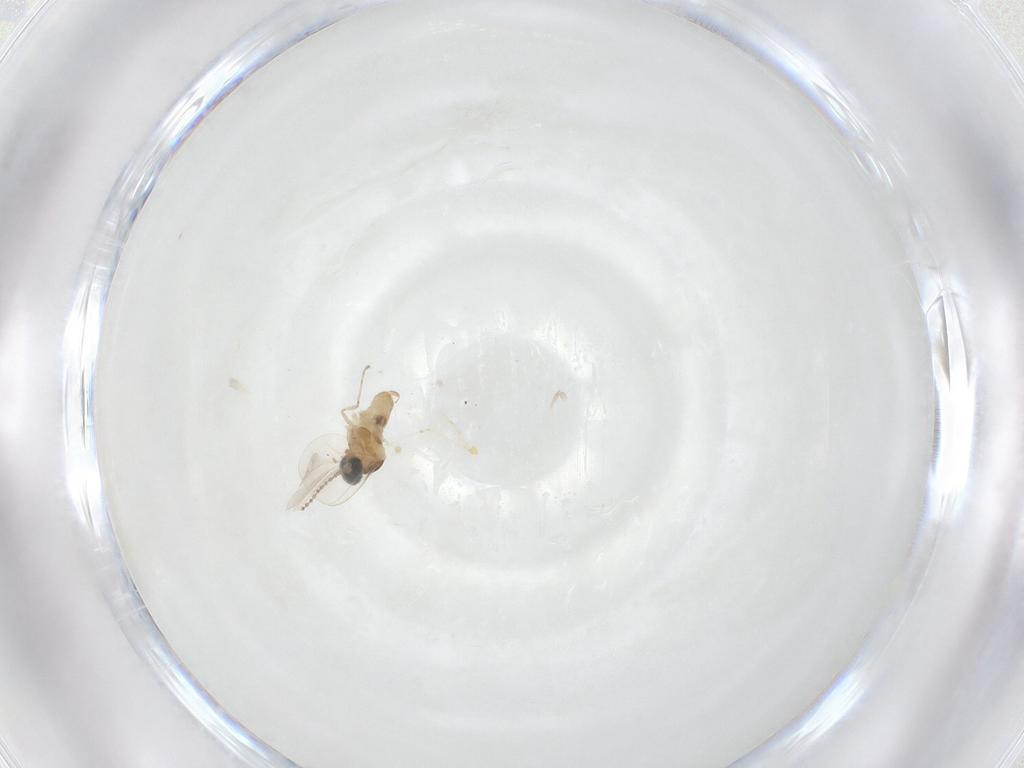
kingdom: Animalia
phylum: Arthropoda
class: Insecta
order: Diptera
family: Cecidomyiidae
